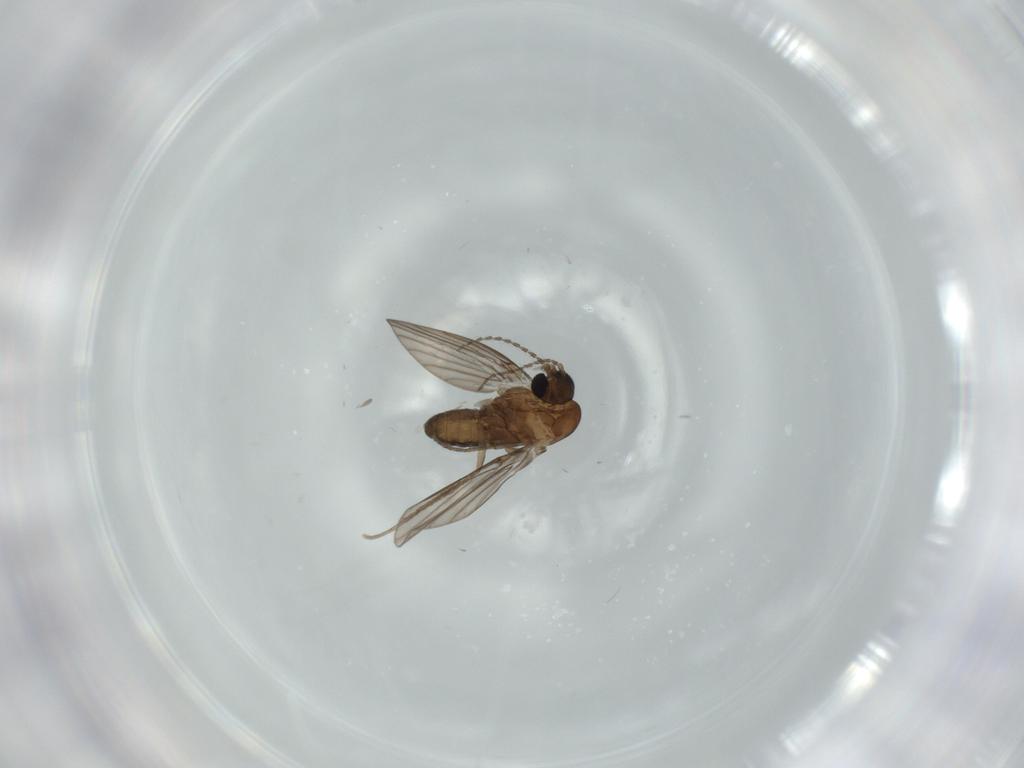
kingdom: Animalia
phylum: Arthropoda
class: Insecta
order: Diptera
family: Psychodidae
